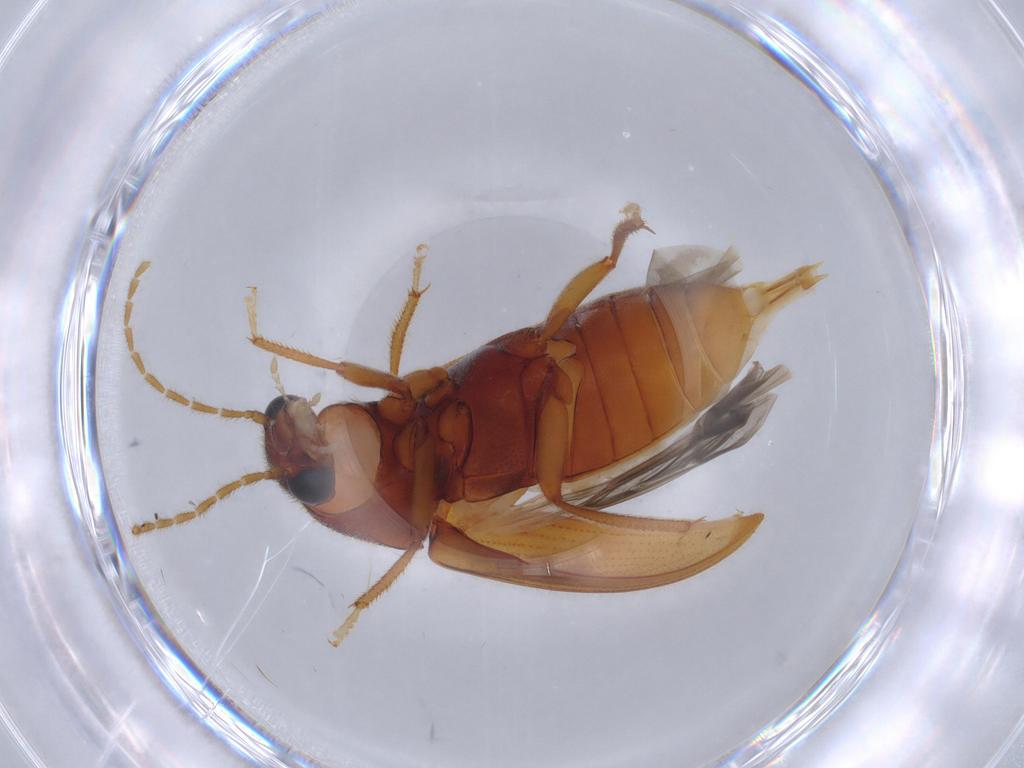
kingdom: Animalia
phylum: Arthropoda
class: Insecta
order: Coleoptera
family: Ptilodactylidae
